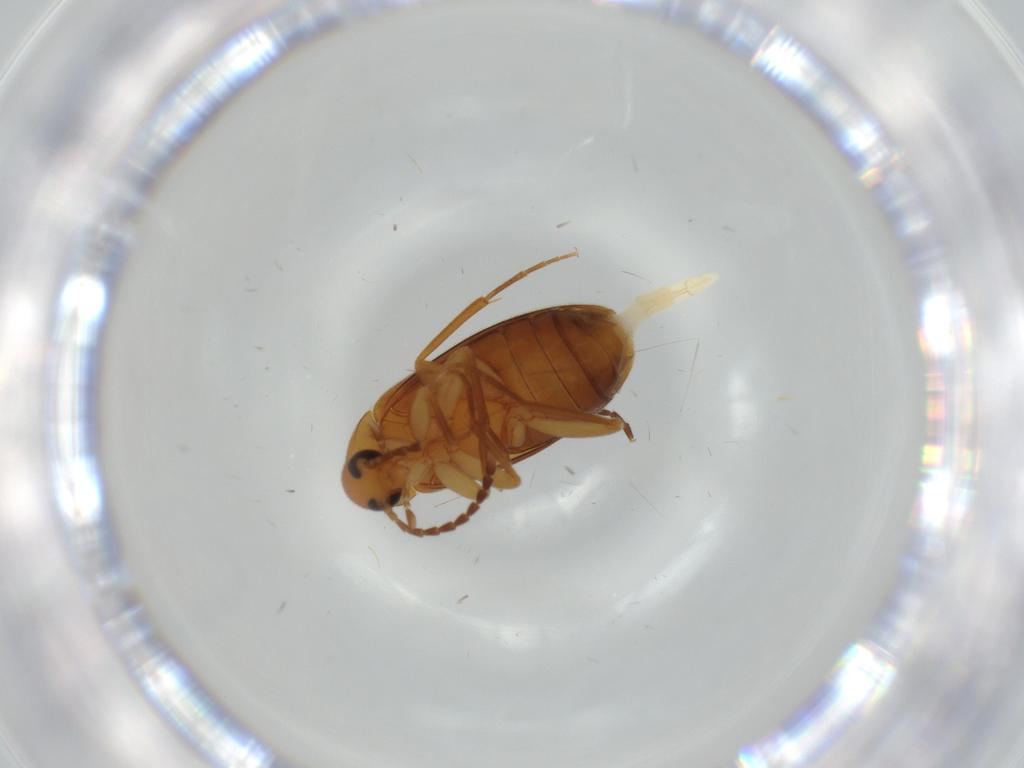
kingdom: Animalia
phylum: Arthropoda
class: Insecta
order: Coleoptera
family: Scraptiidae
